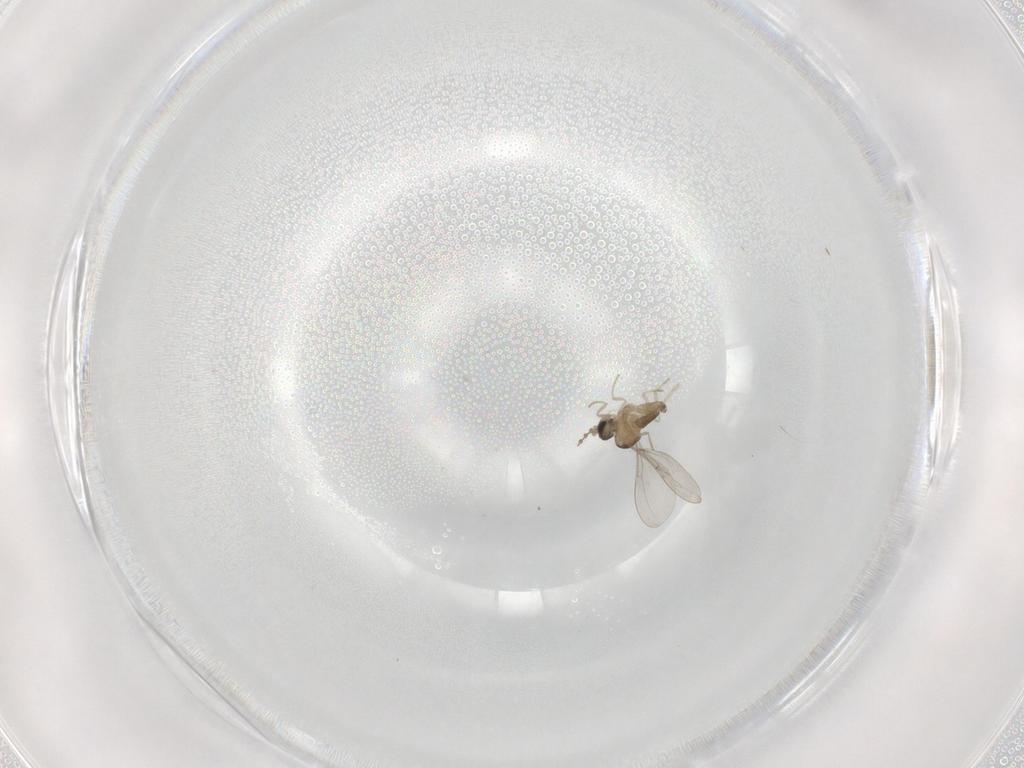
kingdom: Animalia
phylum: Arthropoda
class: Insecta
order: Diptera
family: Cecidomyiidae
